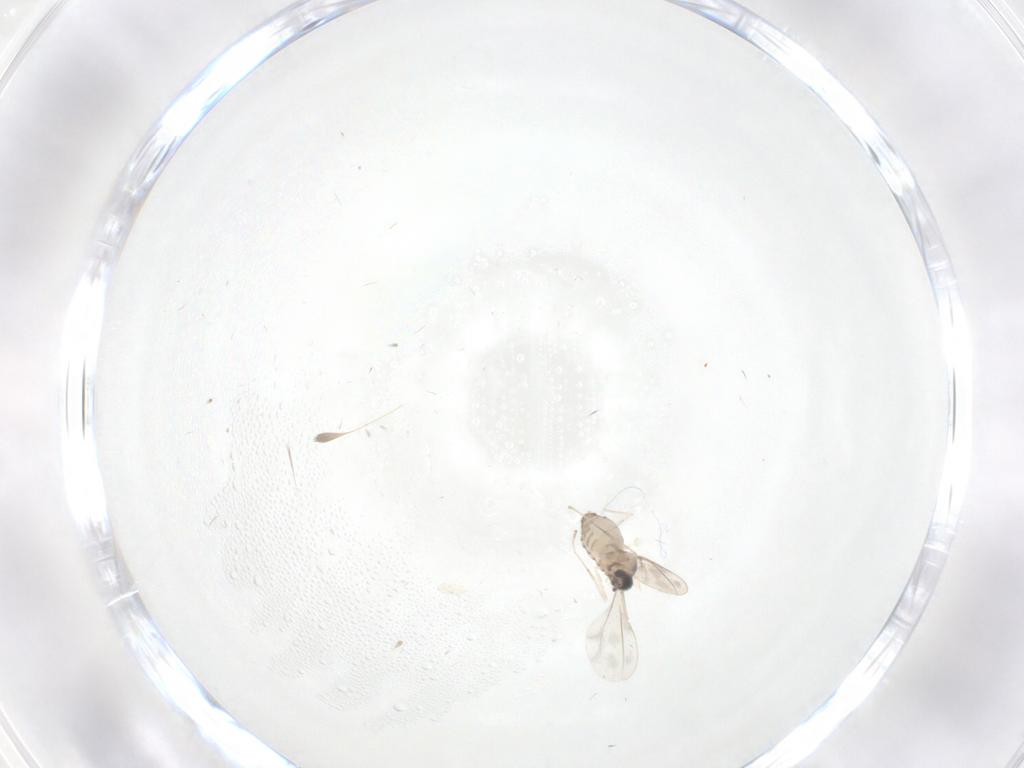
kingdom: Animalia
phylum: Arthropoda
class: Insecta
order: Diptera
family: Cecidomyiidae
